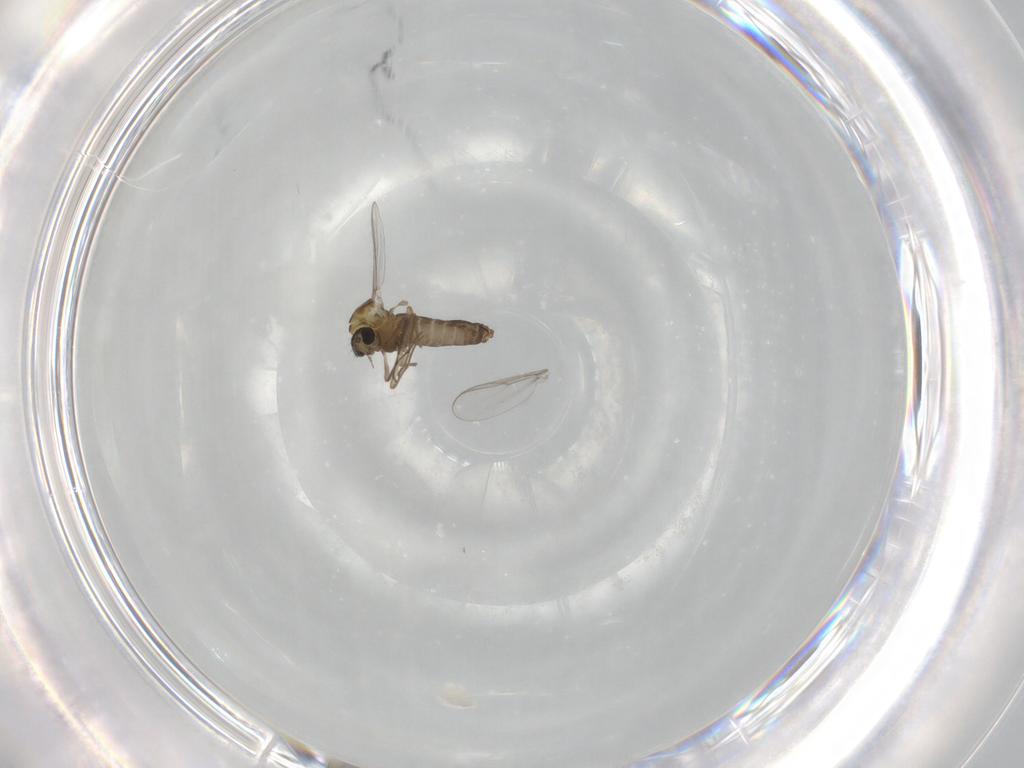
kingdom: Animalia
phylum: Arthropoda
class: Insecta
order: Diptera
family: Chironomidae
